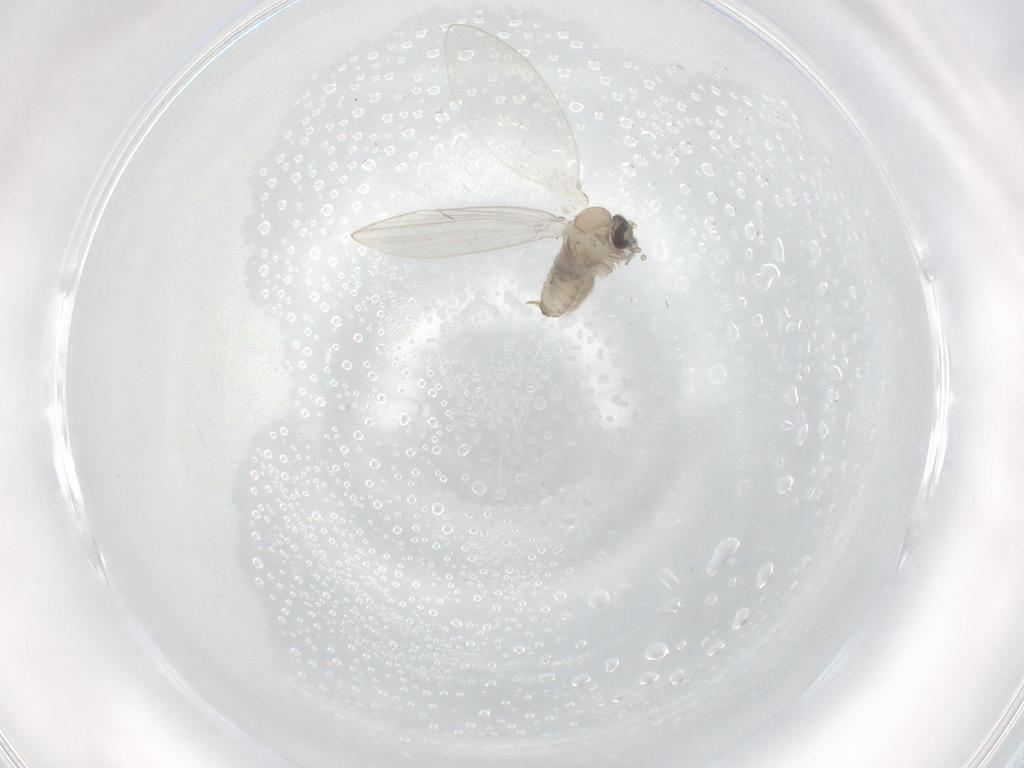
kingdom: Animalia
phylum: Arthropoda
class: Insecta
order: Diptera
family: Psychodidae
